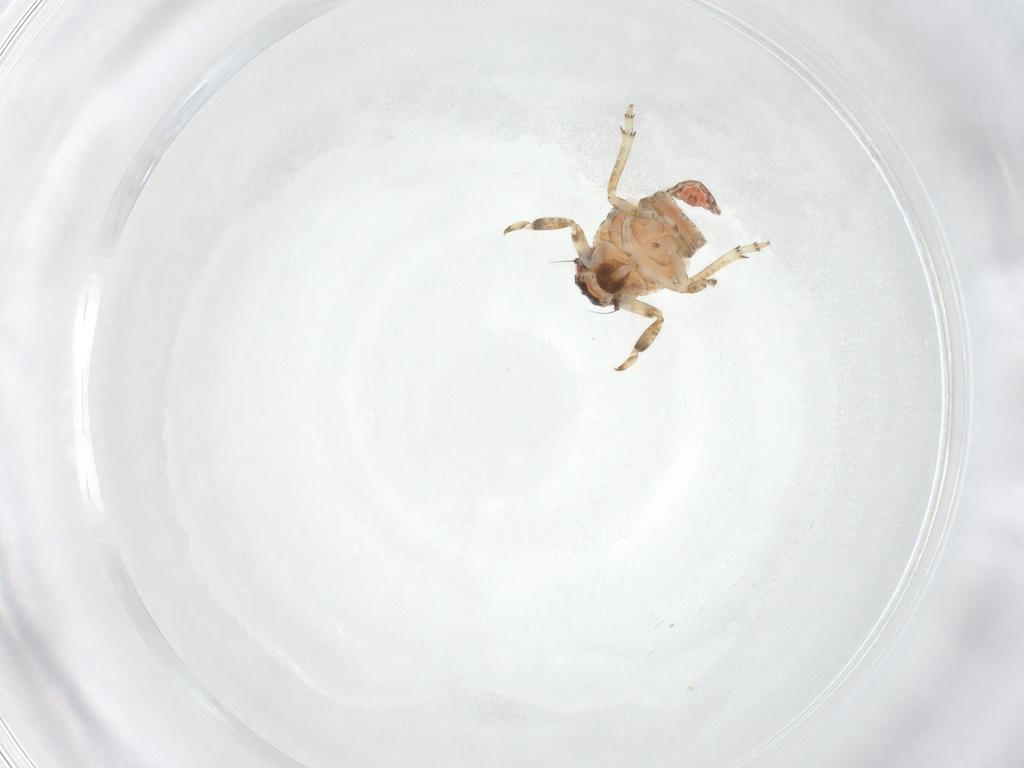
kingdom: Animalia
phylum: Arthropoda
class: Insecta
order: Hemiptera
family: Issidae
